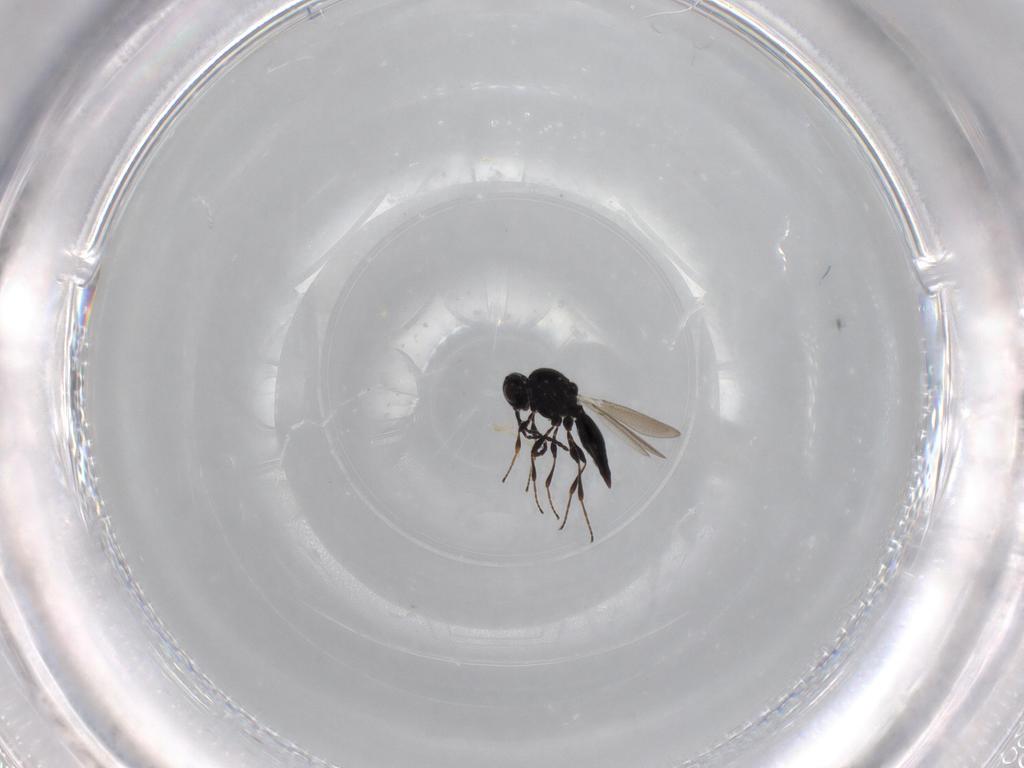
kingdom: Animalia
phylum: Arthropoda
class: Insecta
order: Hymenoptera
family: Platygastridae
